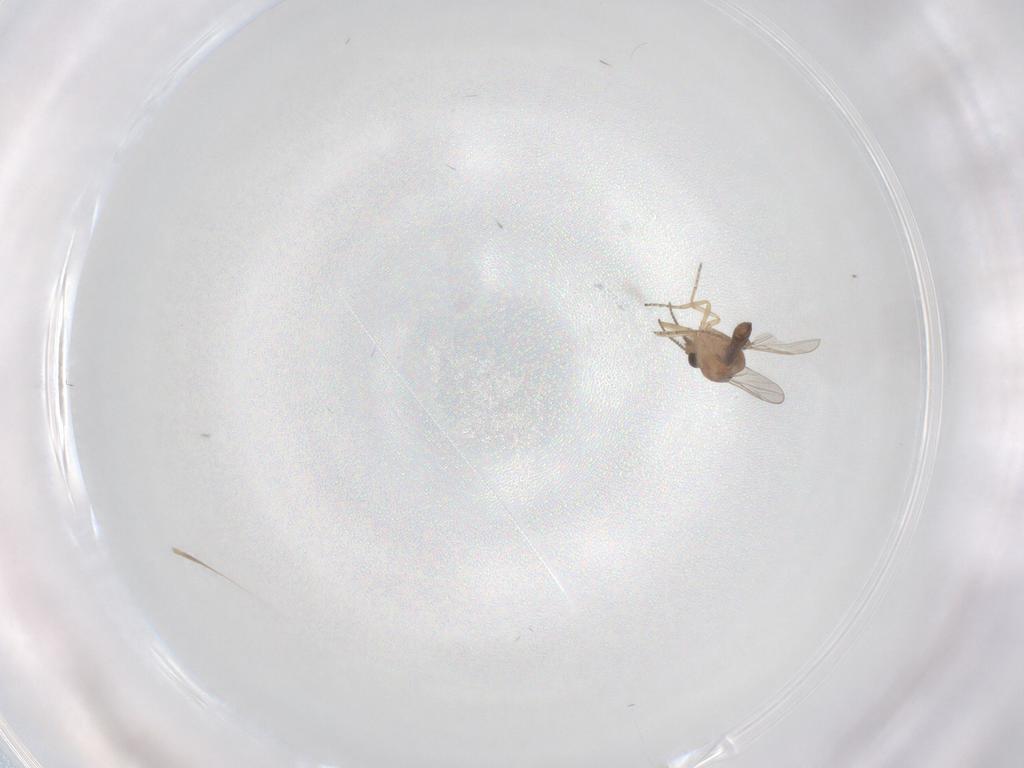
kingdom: Animalia
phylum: Arthropoda
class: Insecta
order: Diptera
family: Ceratopogonidae
